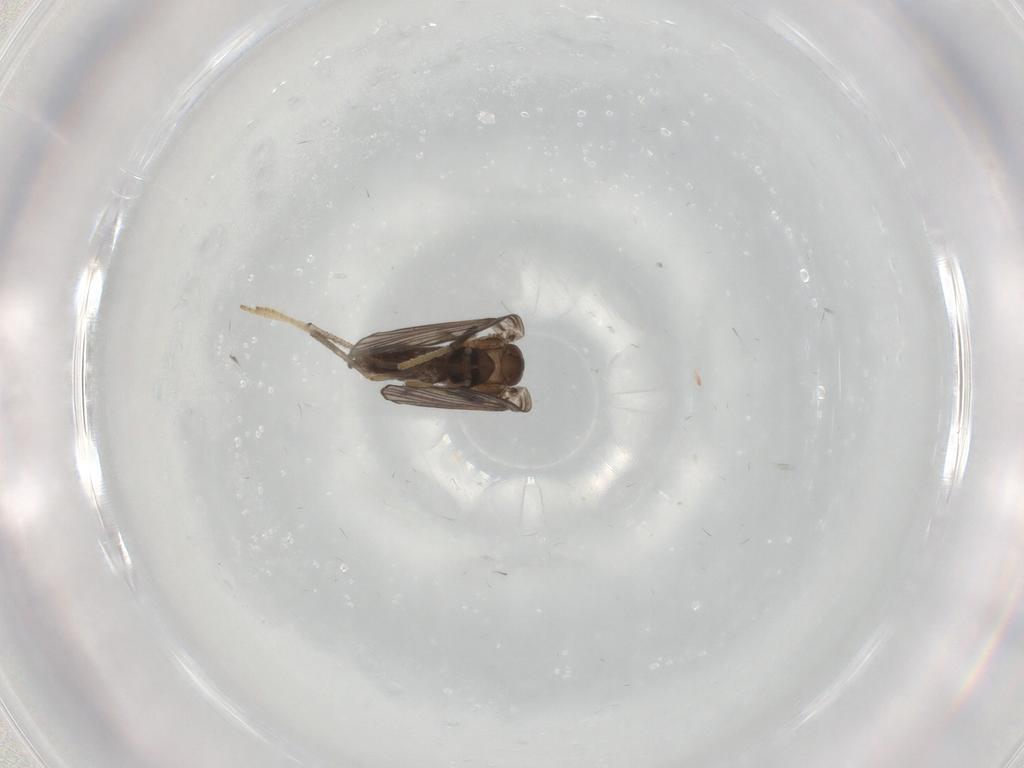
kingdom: Animalia
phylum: Arthropoda
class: Insecta
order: Diptera
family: Psychodidae
